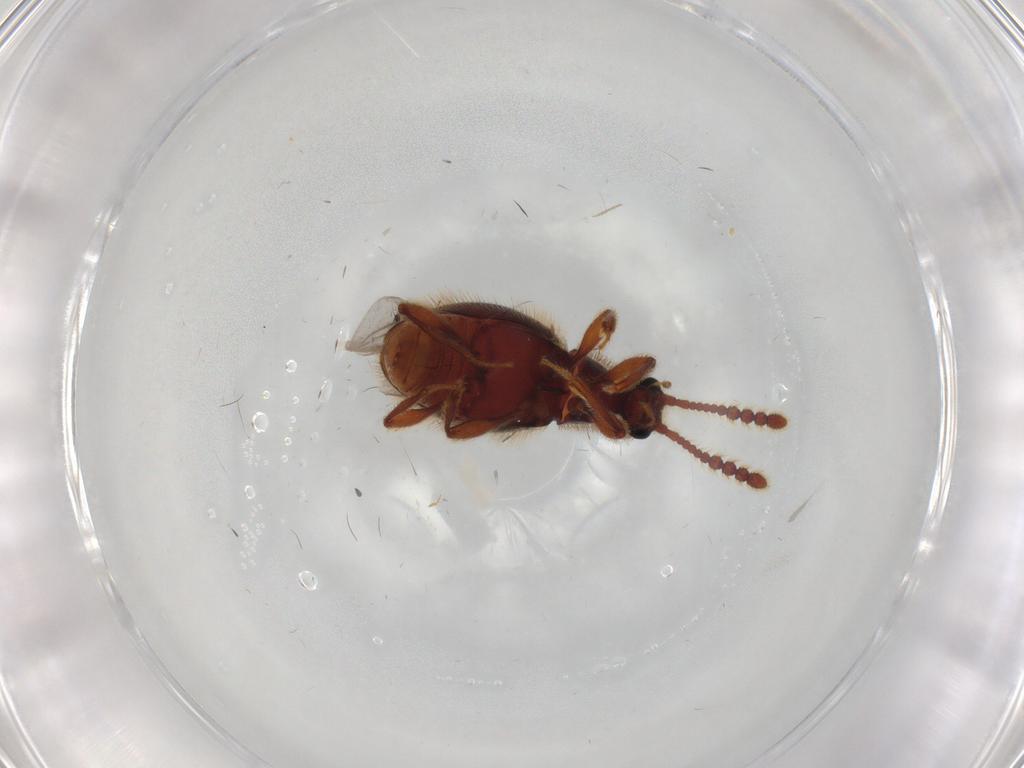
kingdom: Animalia
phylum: Arthropoda
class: Insecta
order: Coleoptera
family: Staphylinidae
